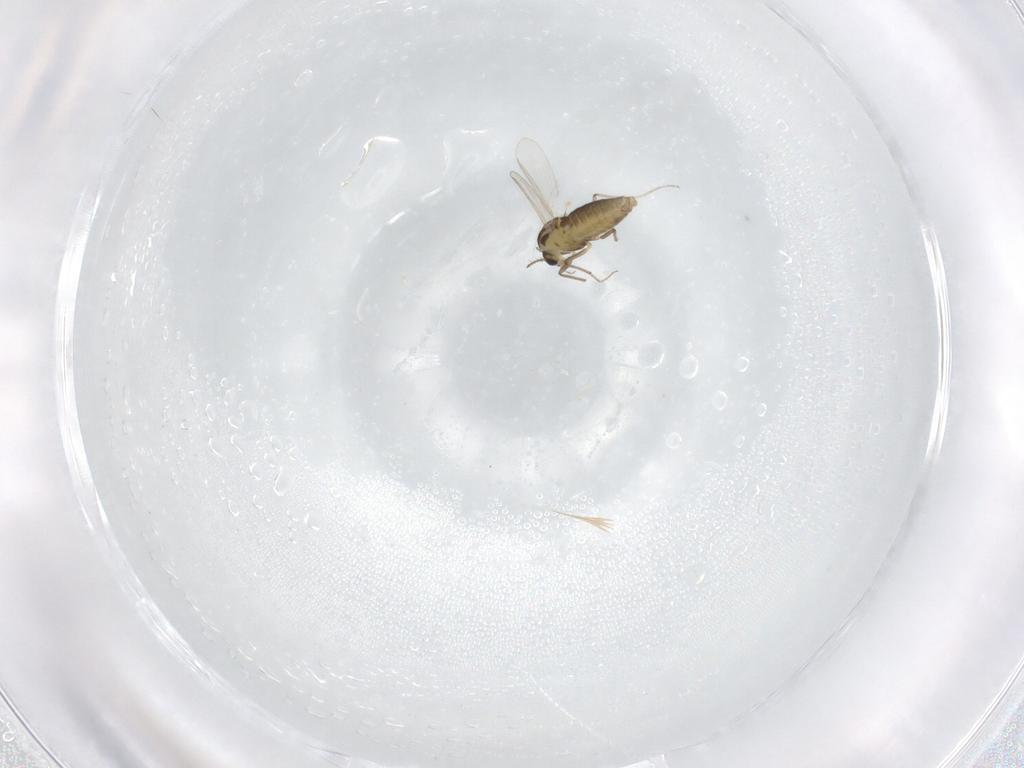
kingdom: Animalia
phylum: Arthropoda
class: Insecta
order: Diptera
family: Chironomidae
